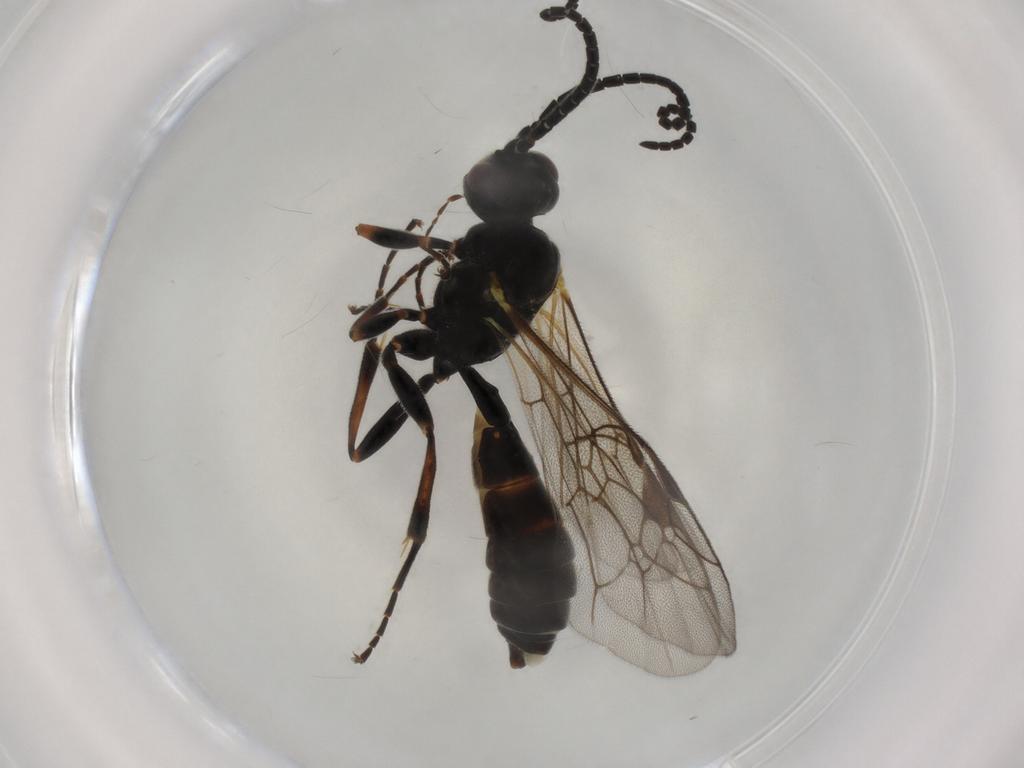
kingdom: Animalia
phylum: Arthropoda
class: Insecta
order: Hymenoptera
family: Ichneumonidae
